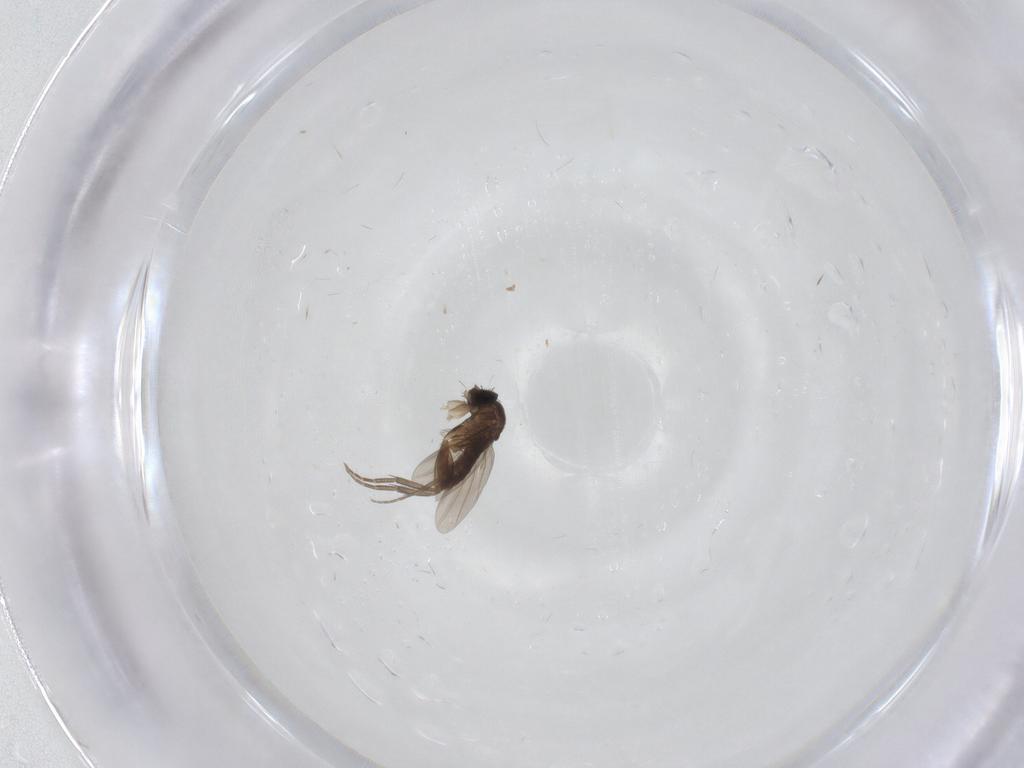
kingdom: Animalia
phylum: Arthropoda
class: Insecta
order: Diptera
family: Phoridae
